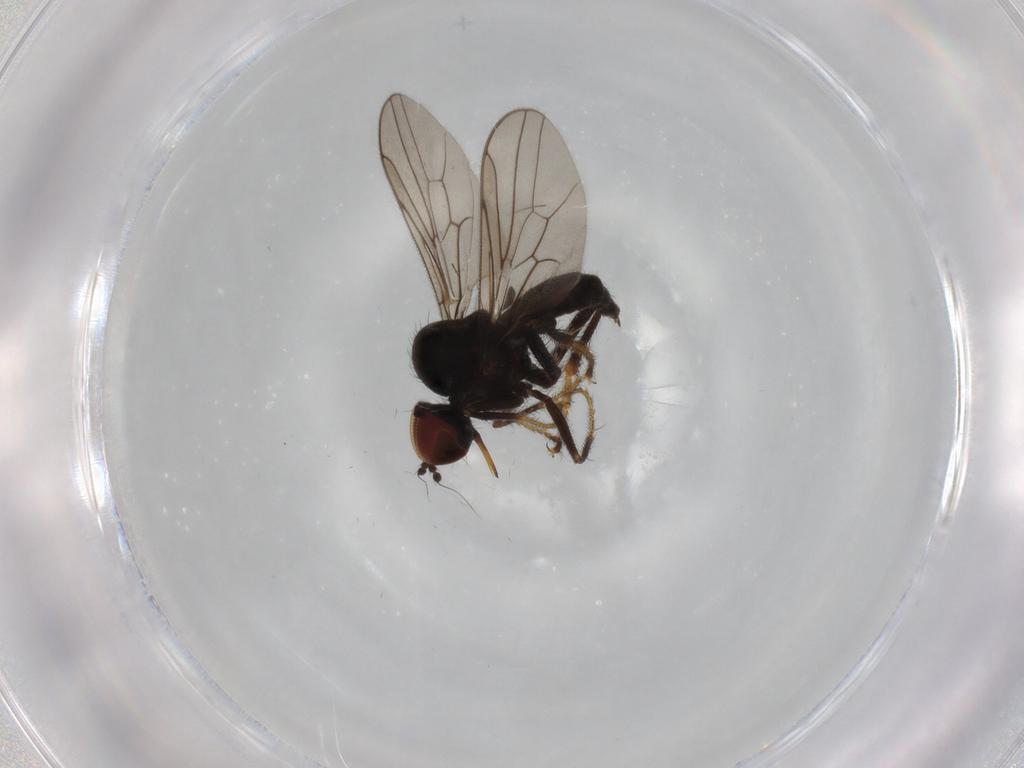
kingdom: Animalia
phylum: Arthropoda
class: Insecta
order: Diptera
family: Hybotidae
